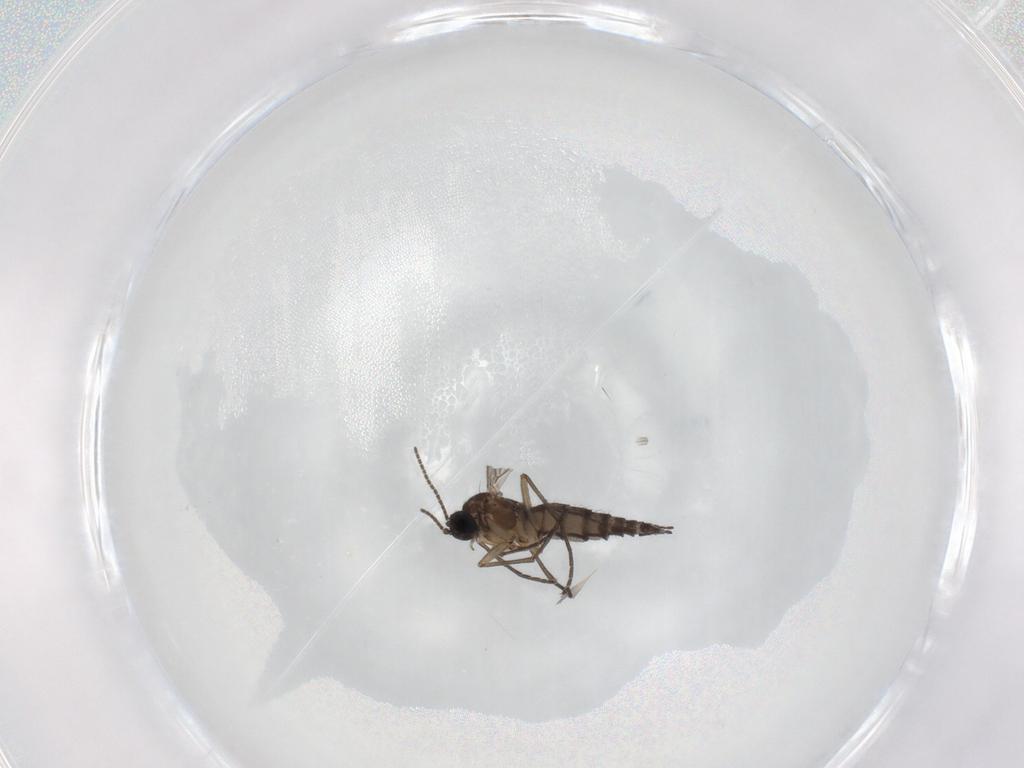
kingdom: Animalia
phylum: Arthropoda
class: Insecta
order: Diptera
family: Sciaridae
